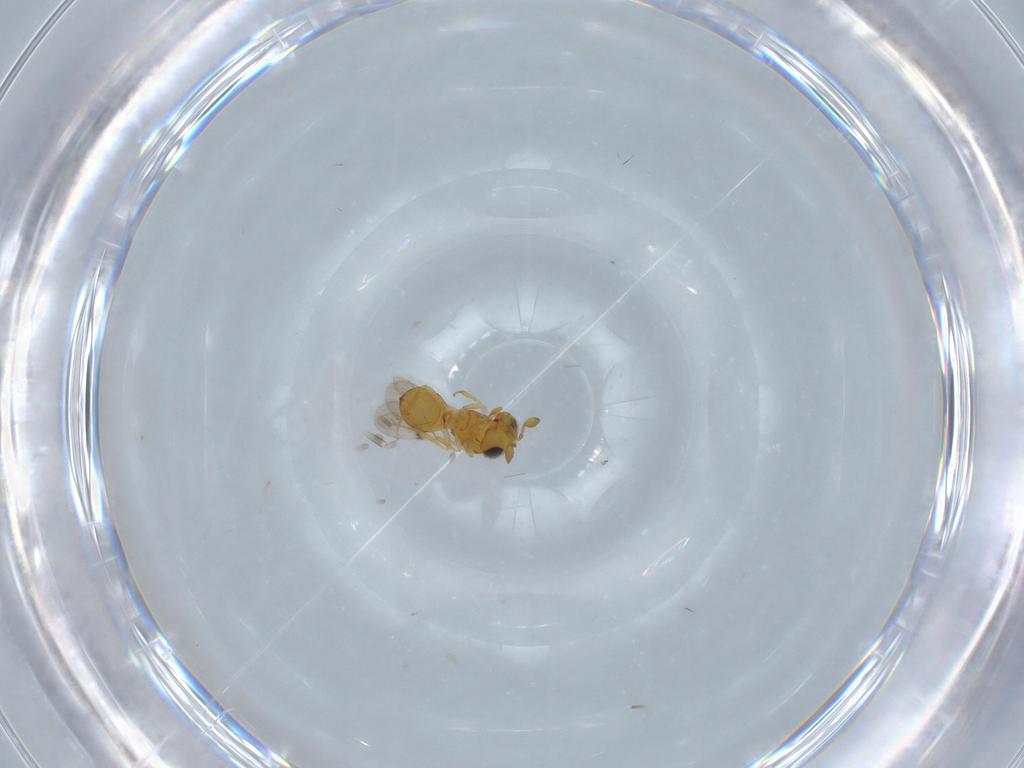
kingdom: Animalia
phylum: Arthropoda
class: Insecta
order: Hymenoptera
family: Scelionidae
